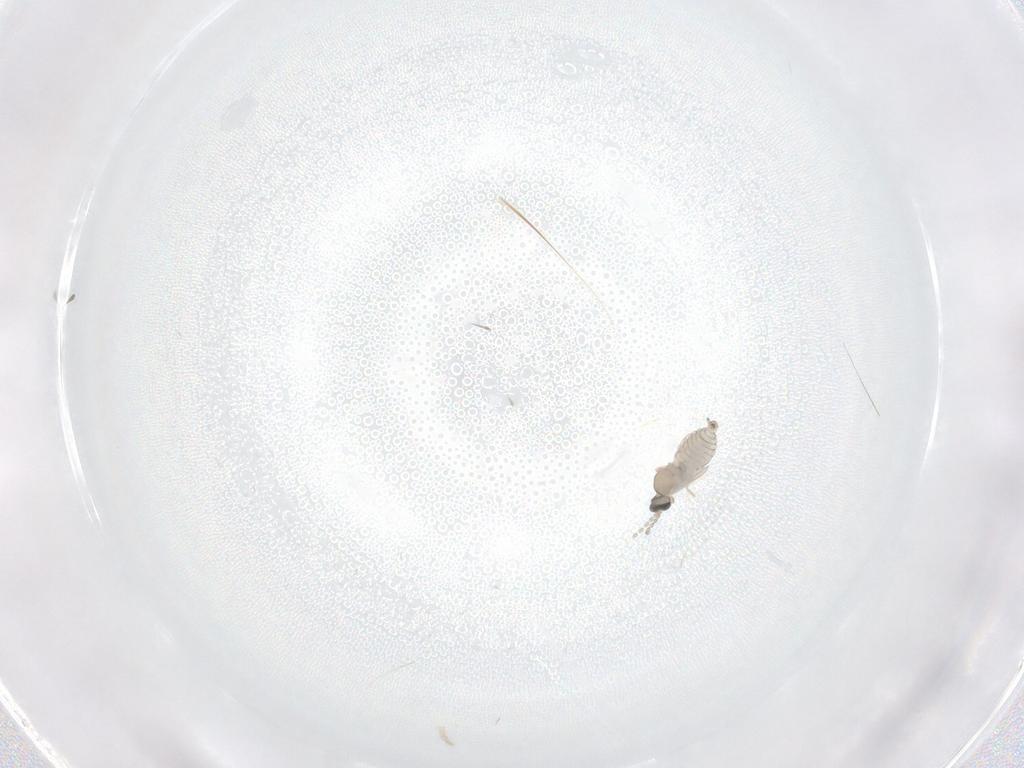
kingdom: Animalia
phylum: Arthropoda
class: Insecta
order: Diptera
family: Cecidomyiidae
